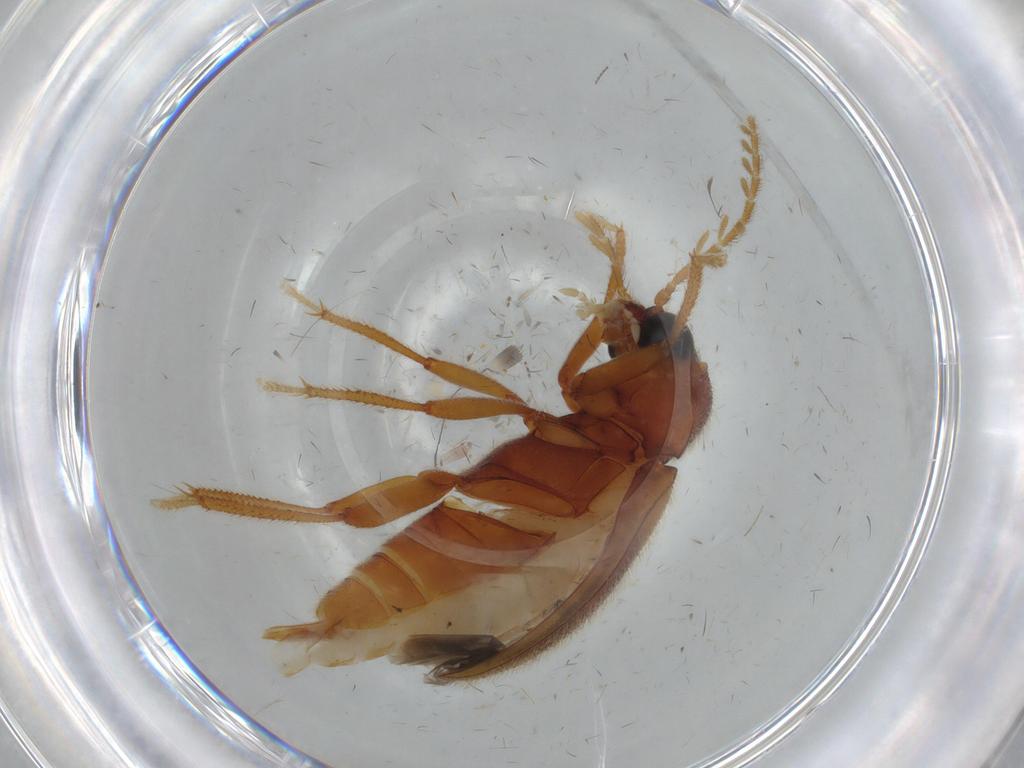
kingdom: Animalia
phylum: Arthropoda
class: Insecta
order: Coleoptera
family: Ptilodactylidae
